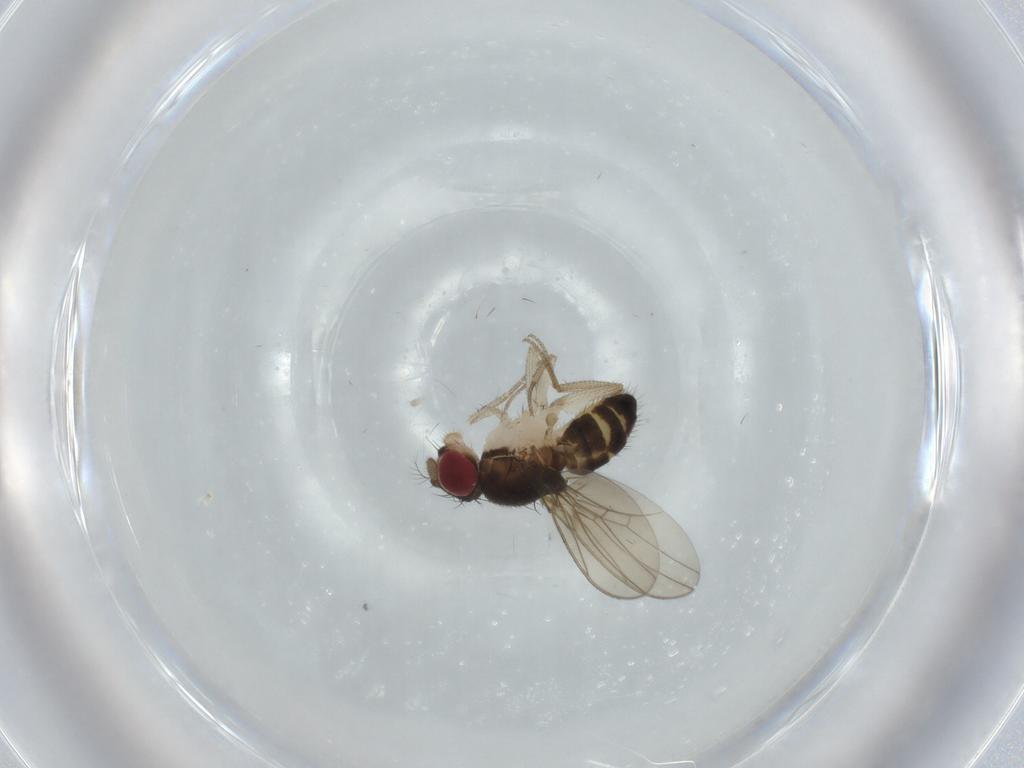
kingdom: Animalia
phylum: Arthropoda
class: Insecta
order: Diptera
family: Drosophilidae
